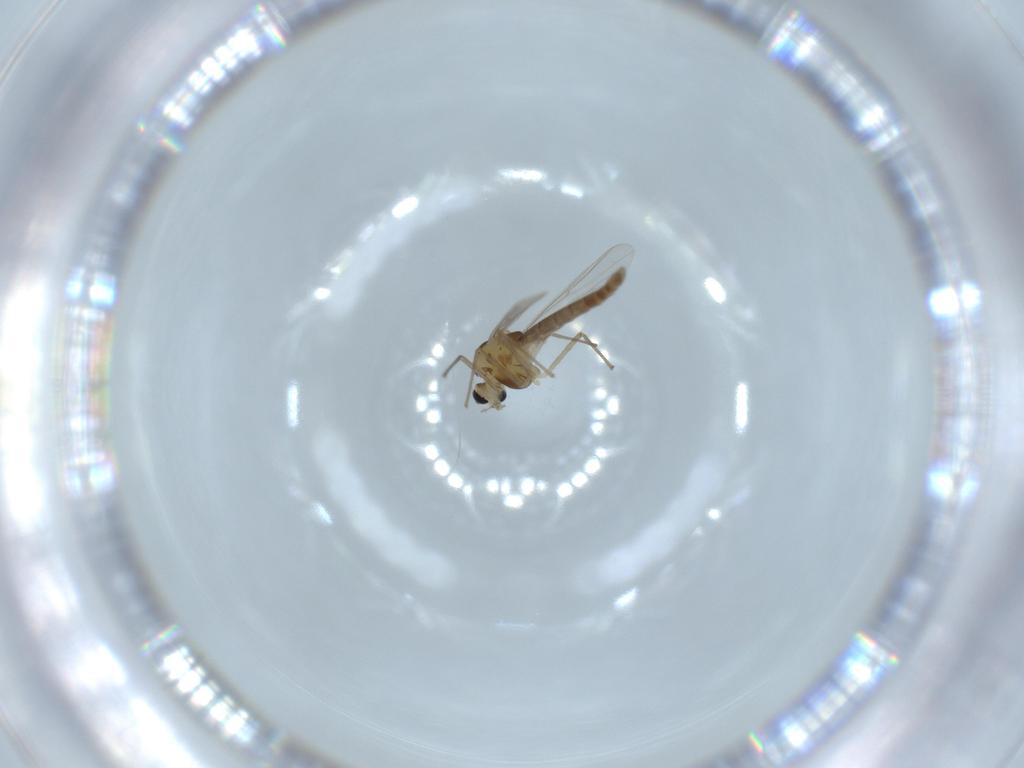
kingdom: Animalia
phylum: Arthropoda
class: Insecta
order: Diptera
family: Chironomidae
